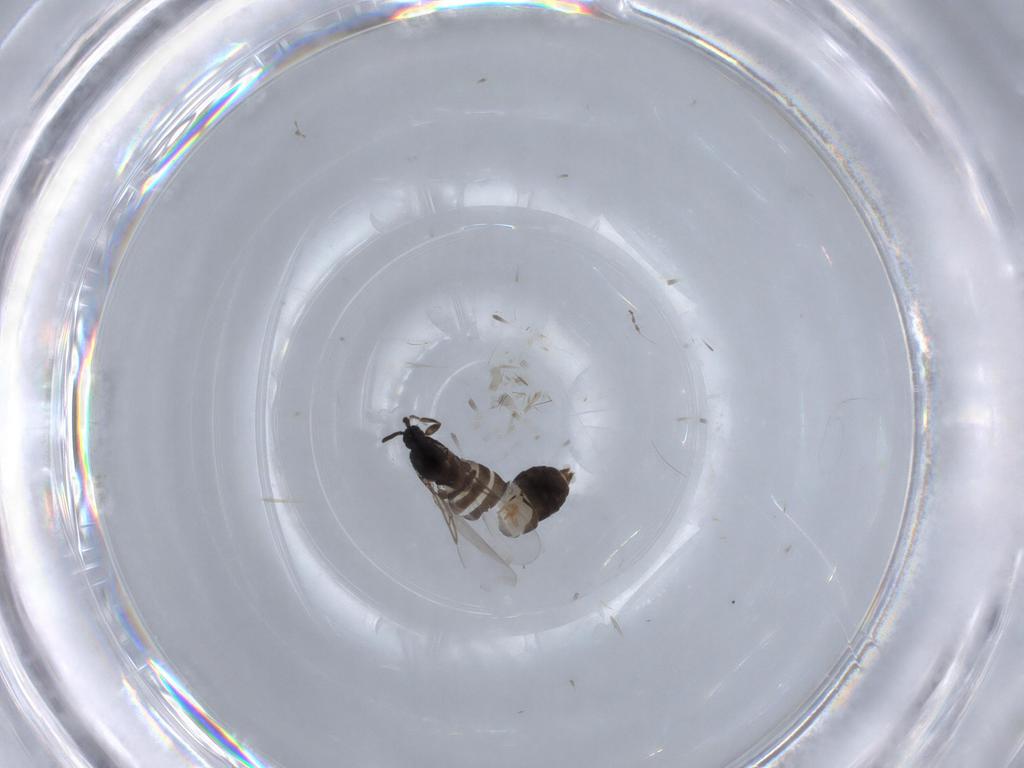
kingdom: Animalia
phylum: Arthropoda
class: Insecta
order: Diptera
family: Scatopsidae
